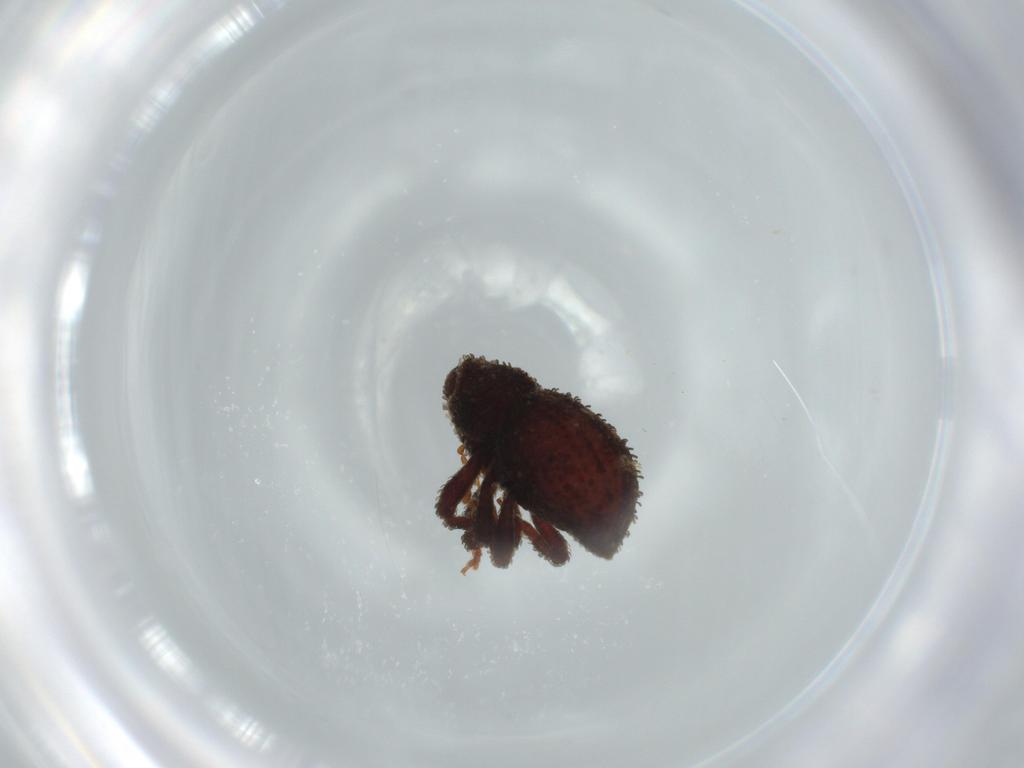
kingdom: Animalia
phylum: Arthropoda
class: Insecta
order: Coleoptera
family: Curculionidae
